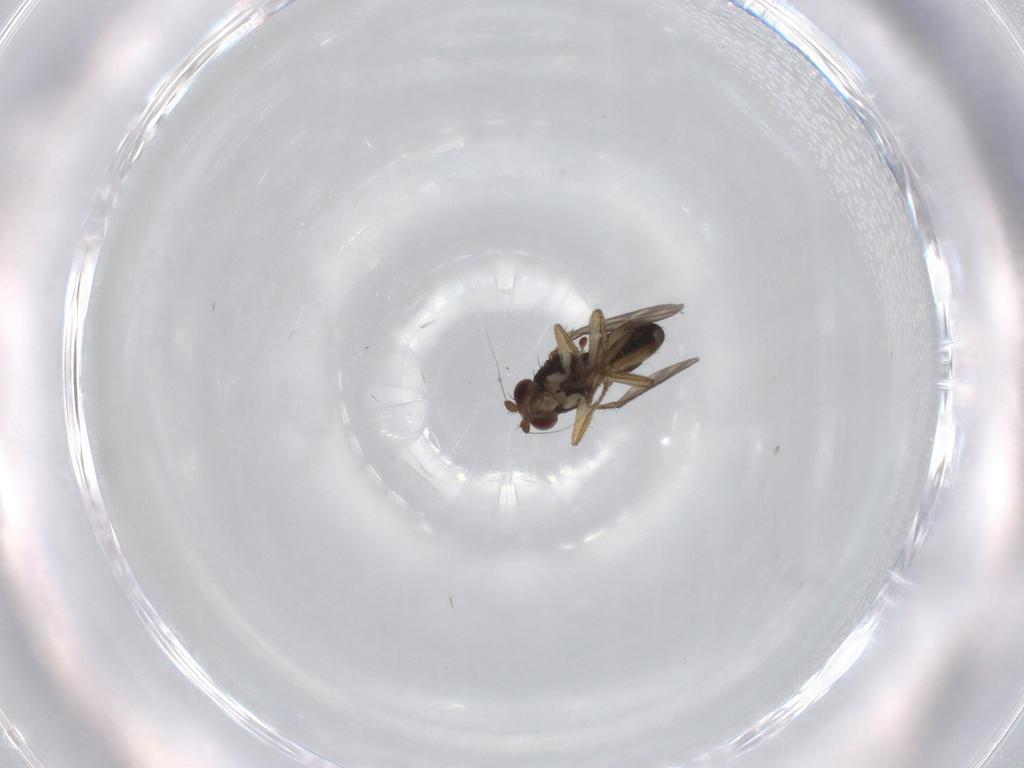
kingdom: Animalia
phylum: Arthropoda
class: Insecta
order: Diptera
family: Sphaeroceridae
